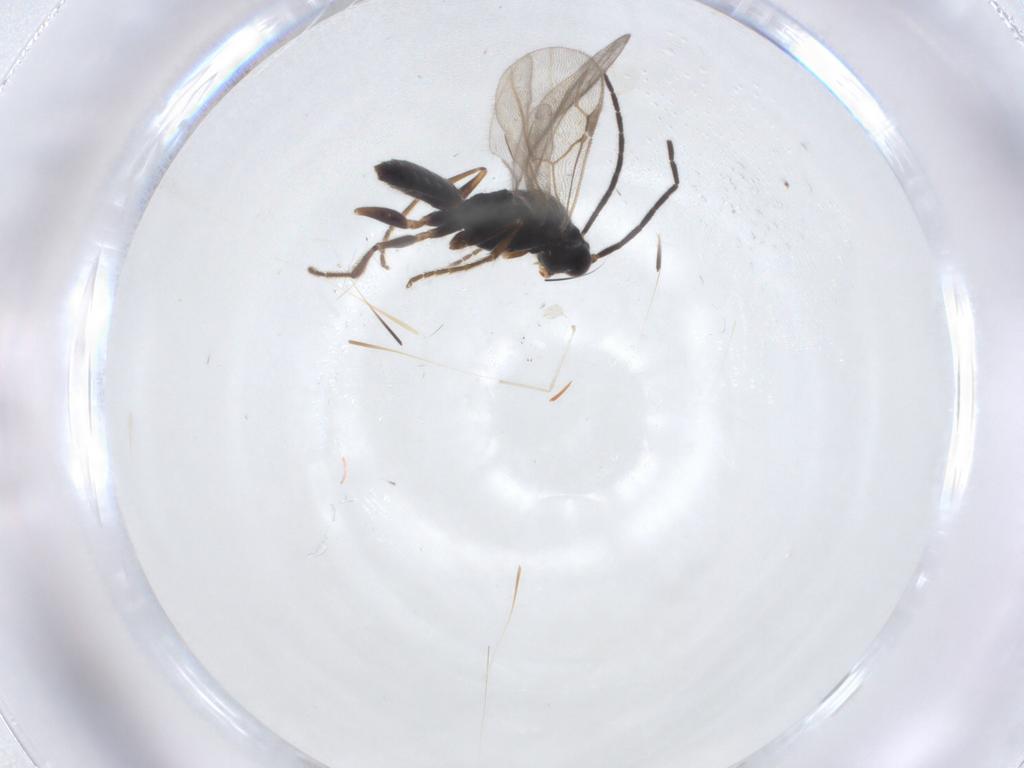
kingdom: Animalia
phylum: Arthropoda
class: Insecta
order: Hymenoptera
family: Dryinidae
